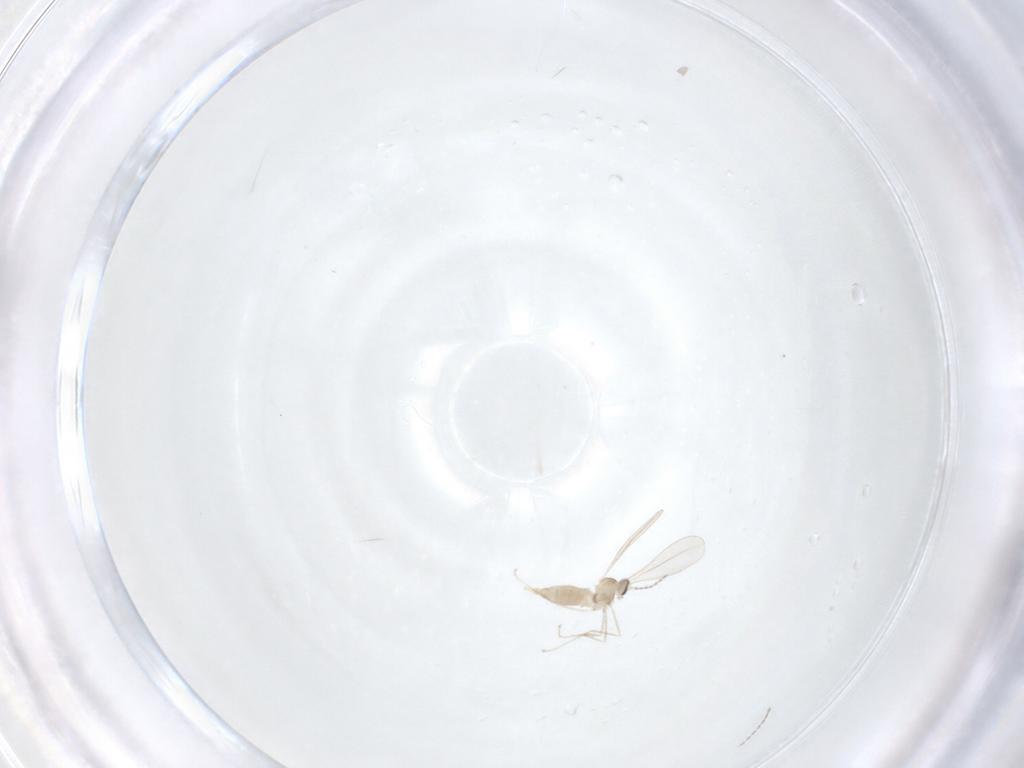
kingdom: Animalia
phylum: Arthropoda
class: Insecta
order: Diptera
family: Cecidomyiidae
